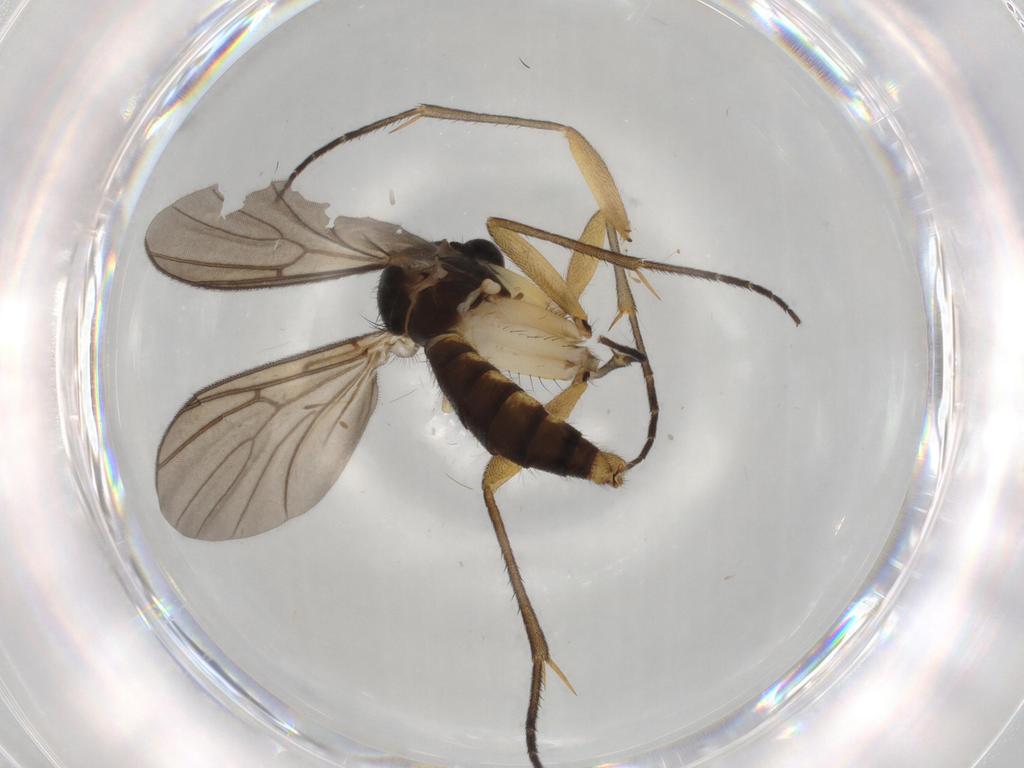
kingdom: Animalia
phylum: Arthropoda
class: Insecta
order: Diptera
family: Mycetophilidae
